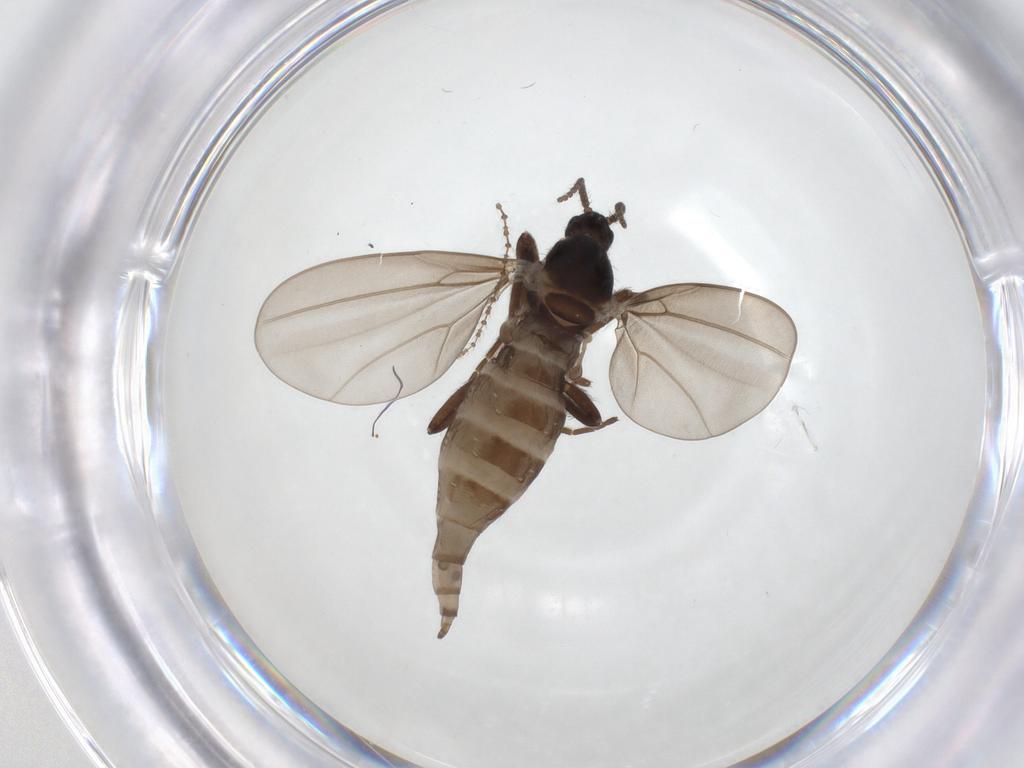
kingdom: Animalia
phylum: Arthropoda
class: Insecta
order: Diptera
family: Cecidomyiidae
